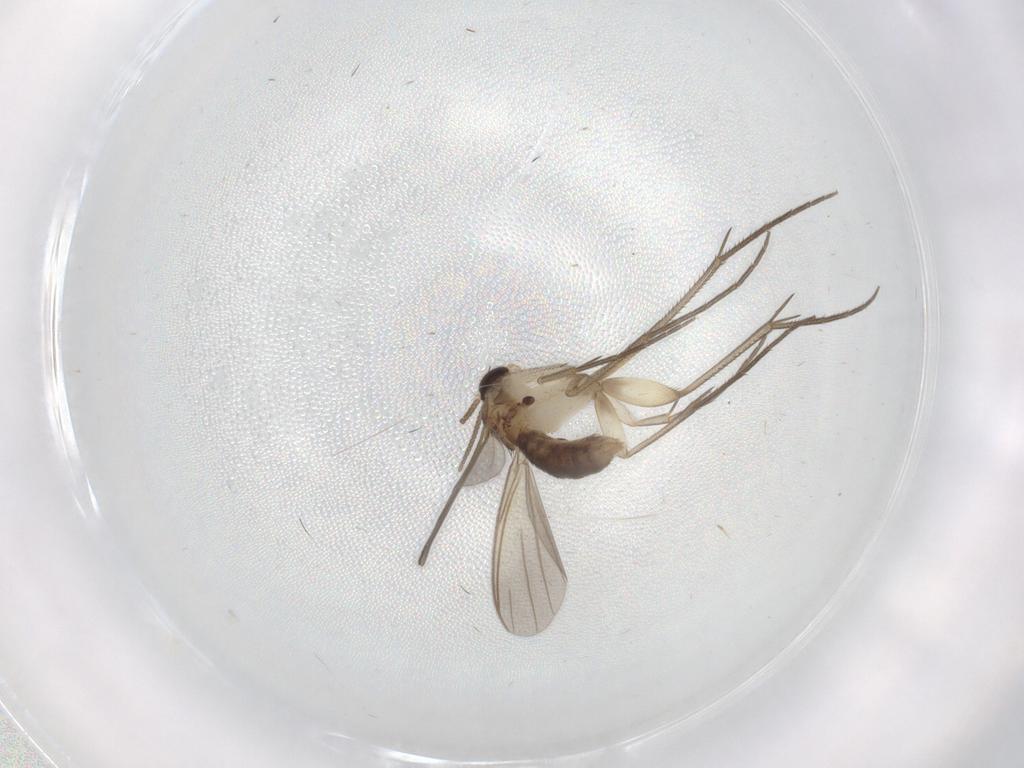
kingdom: Animalia
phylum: Arthropoda
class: Insecta
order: Diptera
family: Mycetophilidae
